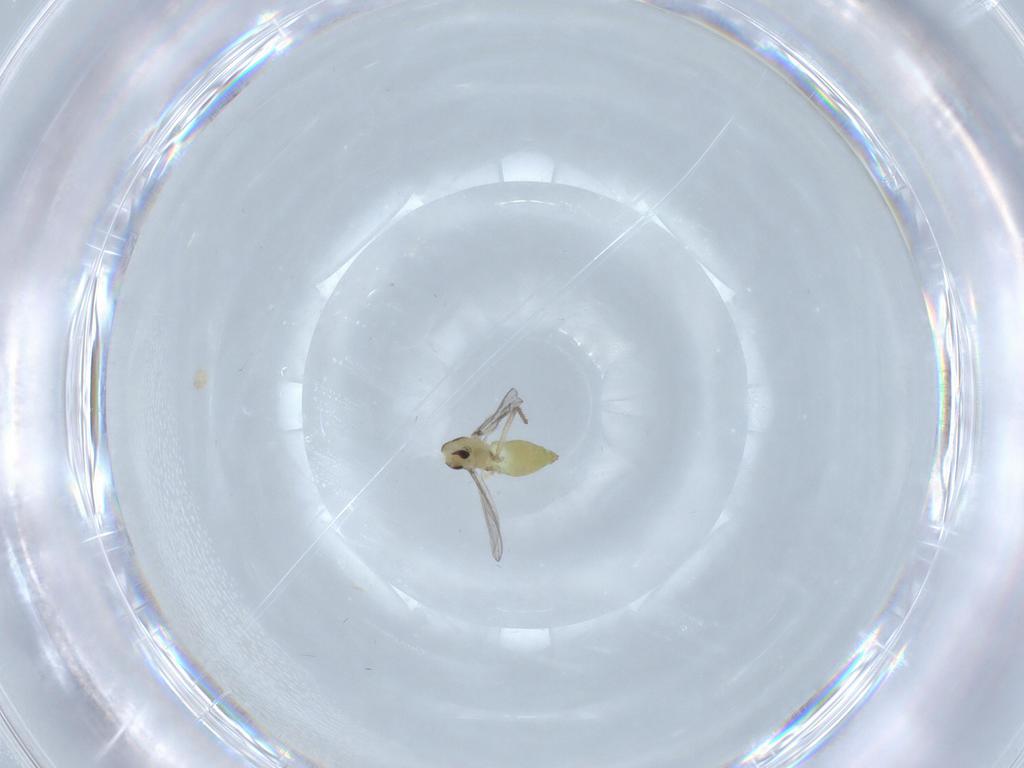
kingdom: Animalia
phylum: Arthropoda
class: Insecta
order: Diptera
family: Chironomidae
